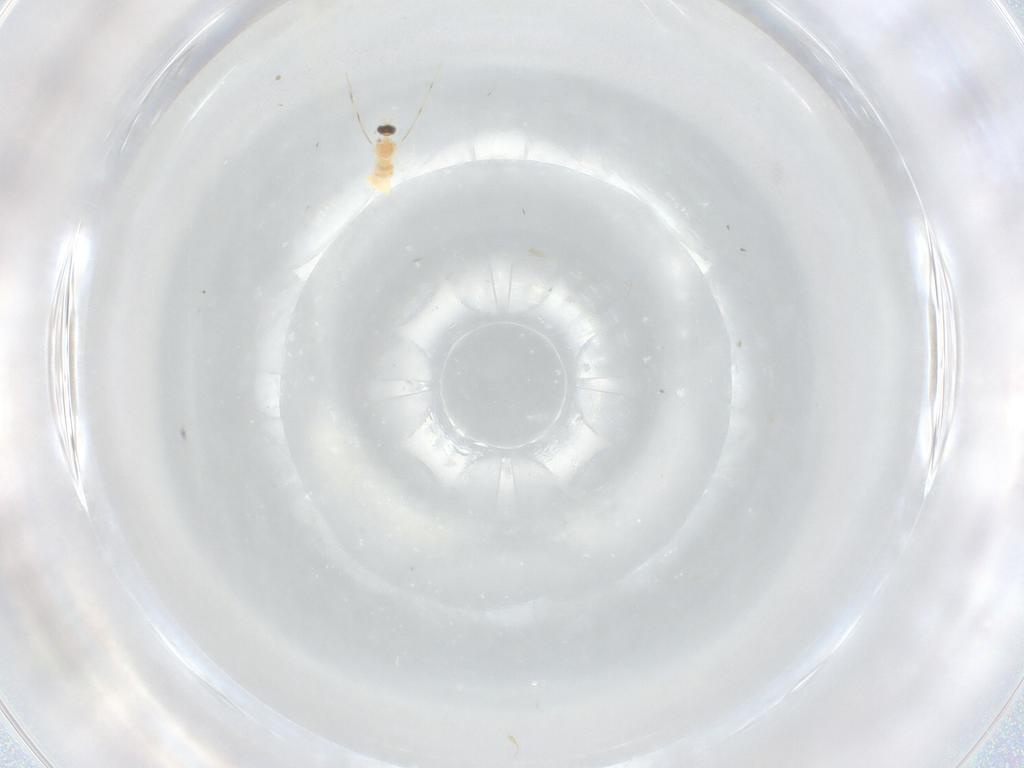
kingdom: Animalia
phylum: Arthropoda
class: Insecta
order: Diptera
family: Cecidomyiidae
